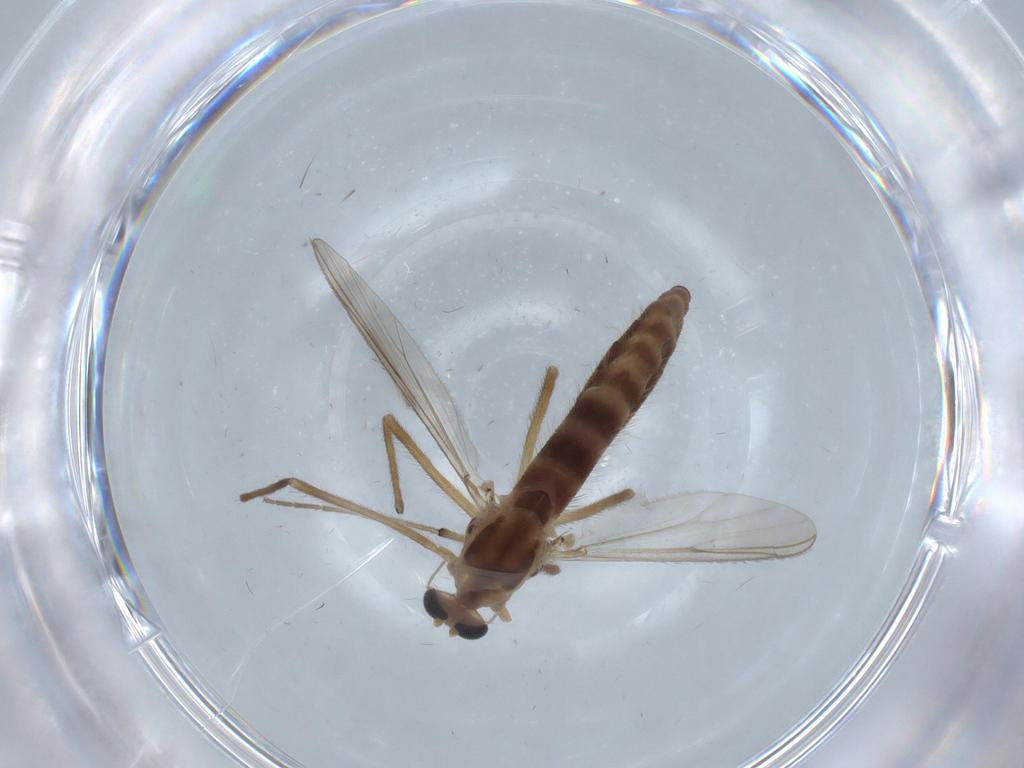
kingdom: Animalia
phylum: Arthropoda
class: Insecta
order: Diptera
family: Chironomidae
